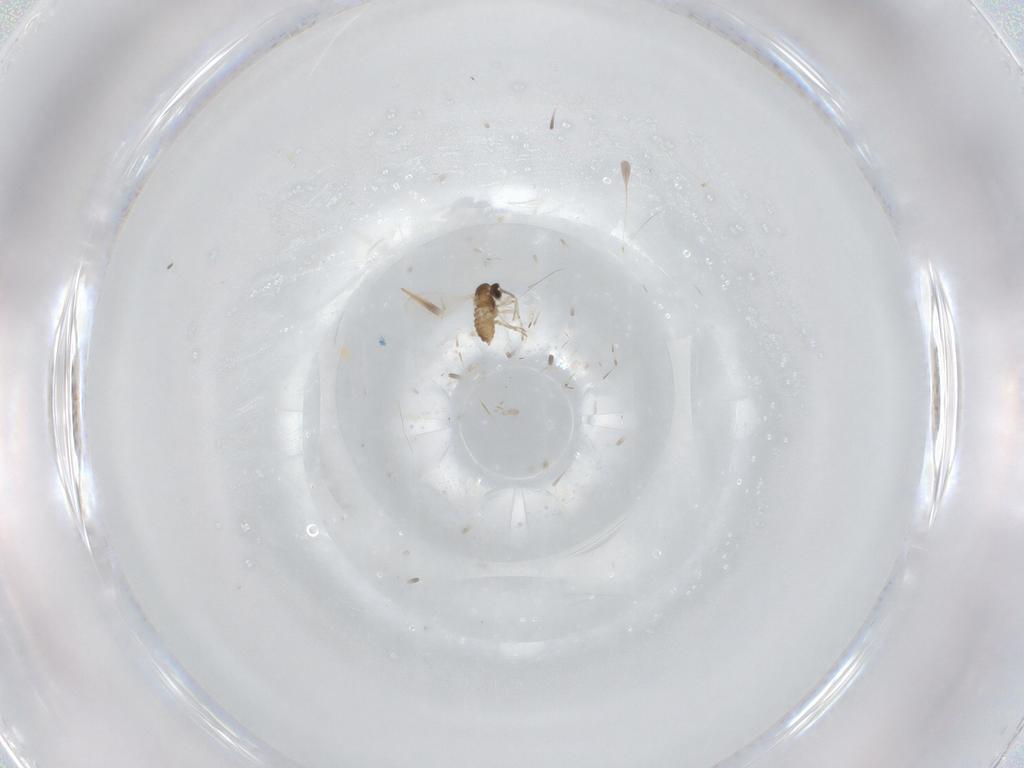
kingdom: Animalia
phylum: Arthropoda
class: Insecta
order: Diptera
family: Cecidomyiidae
